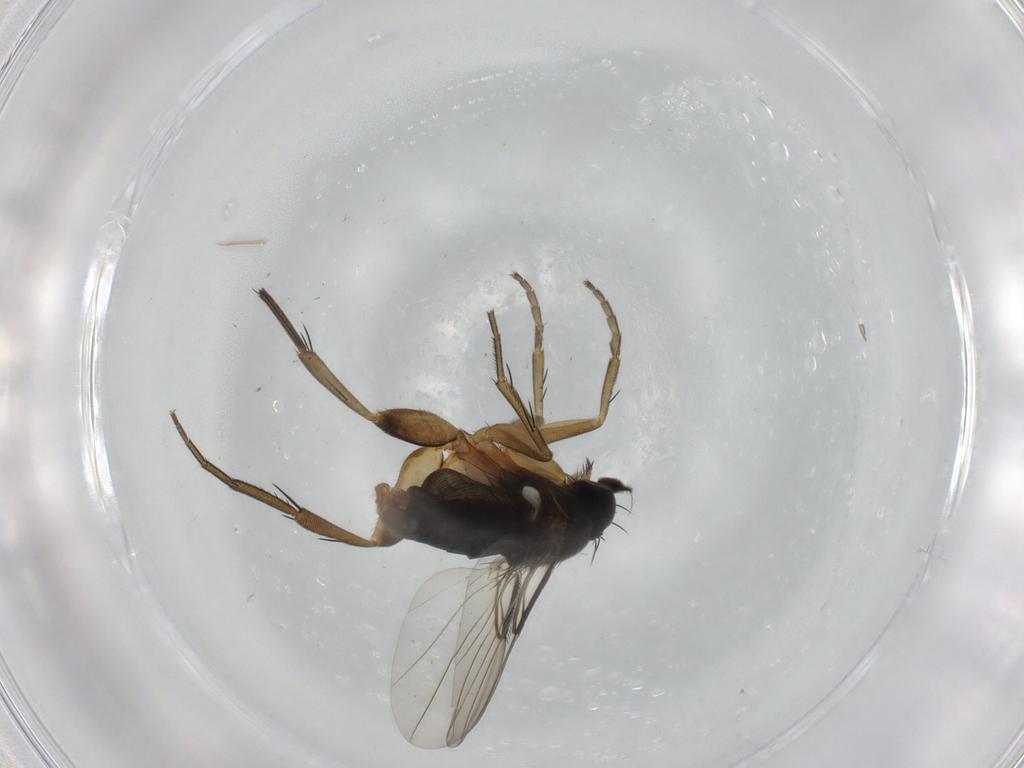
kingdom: Animalia
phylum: Arthropoda
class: Insecta
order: Diptera
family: Phoridae
